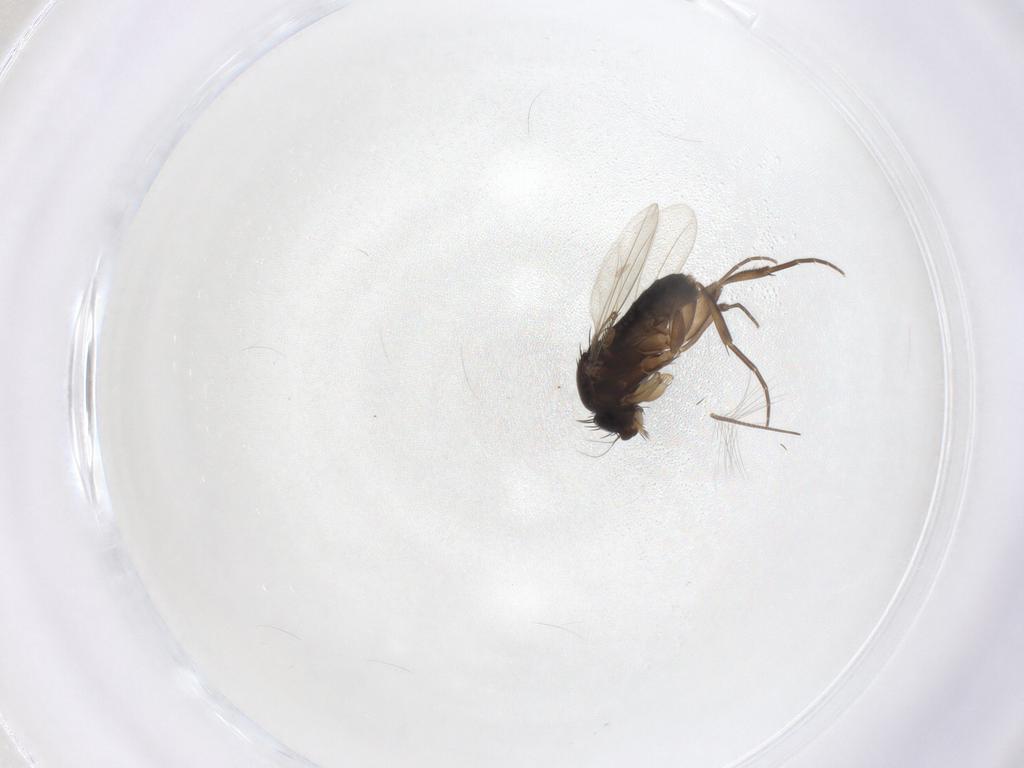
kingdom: Animalia
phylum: Arthropoda
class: Insecta
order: Diptera
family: Phoridae
